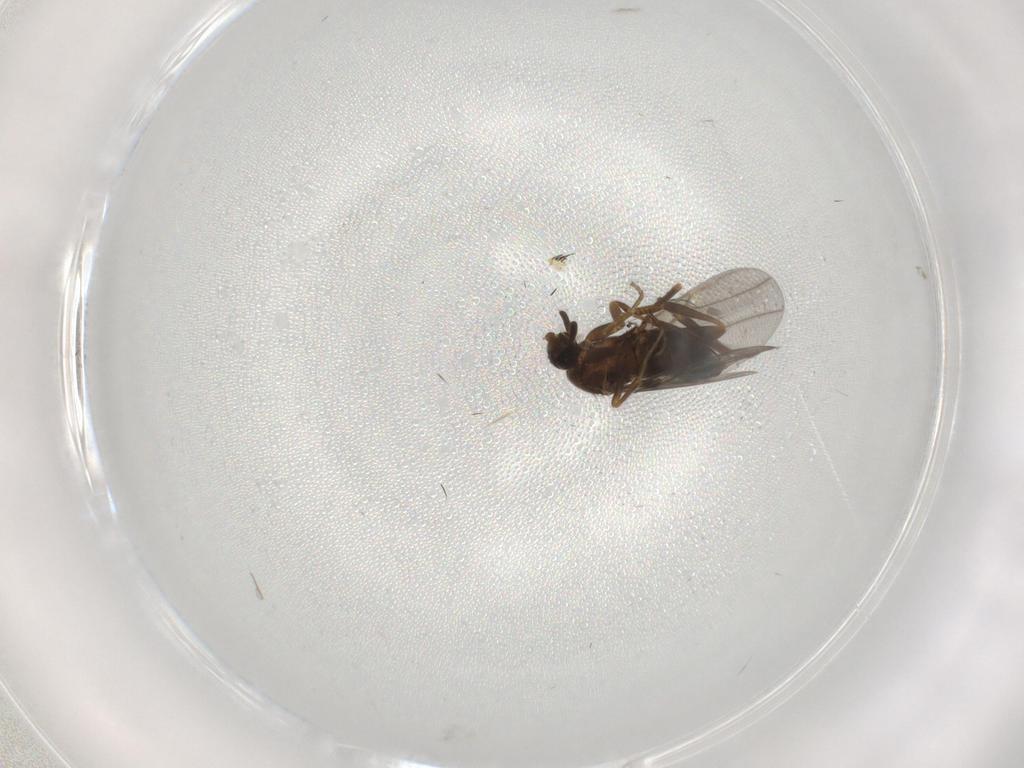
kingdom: Animalia
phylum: Arthropoda
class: Insecta
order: Diptera
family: Phoridae
